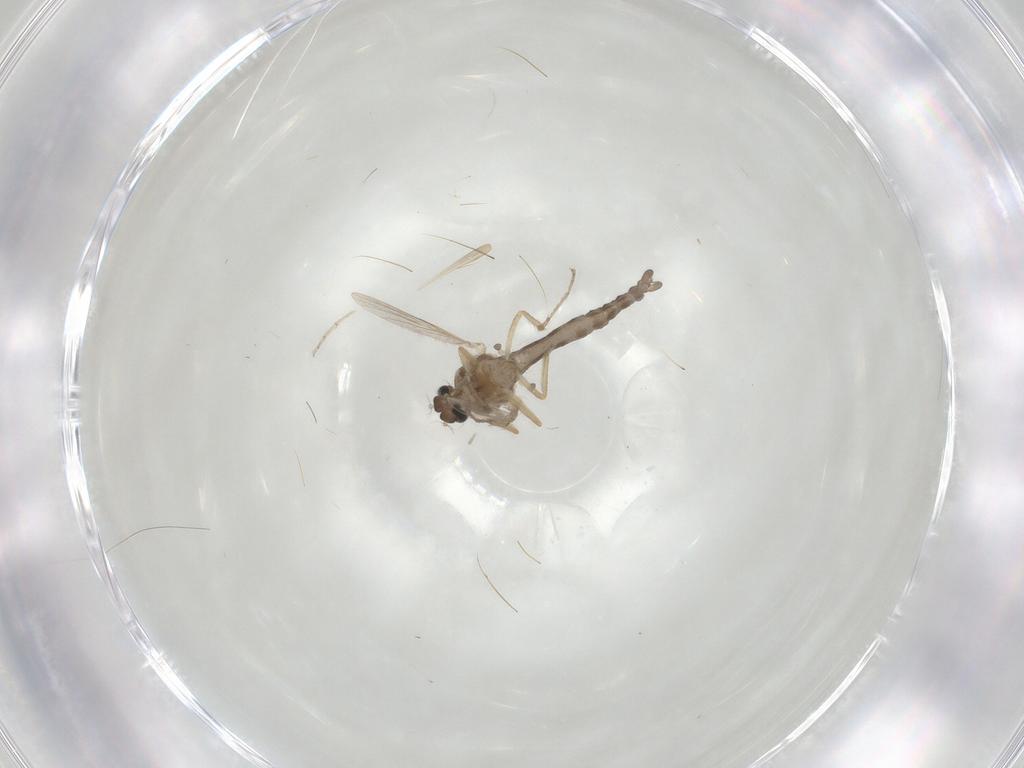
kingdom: Animalia
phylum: Arthropoda
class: Insecta
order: Diptera
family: Ceratopogonidae
